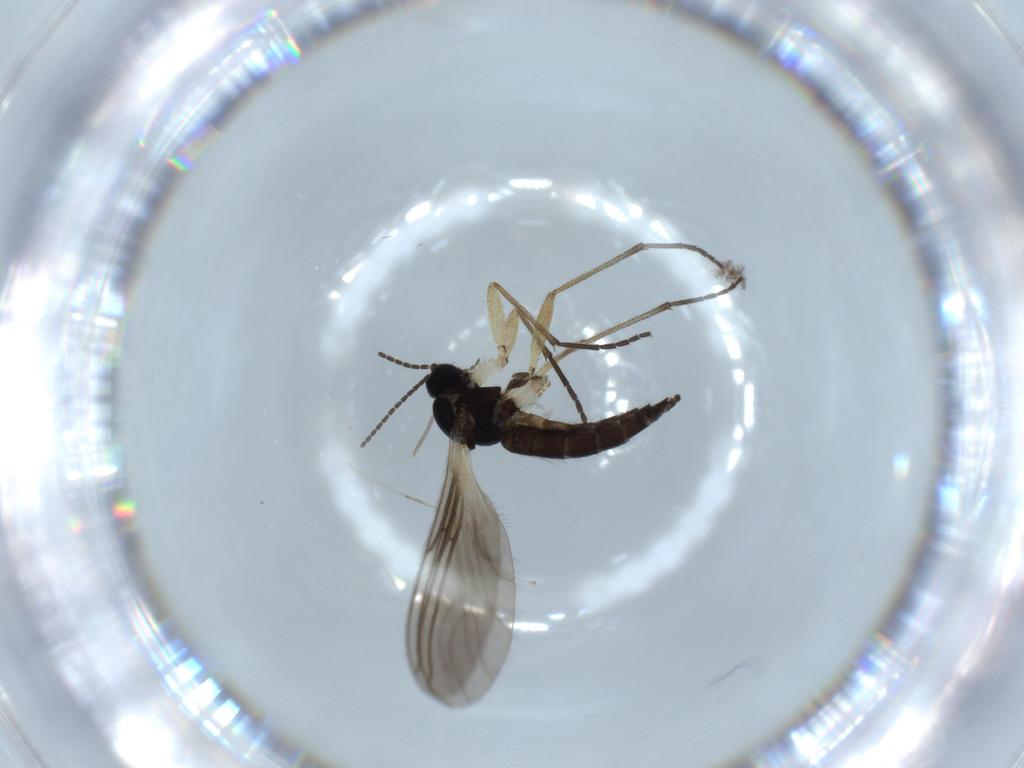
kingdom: Animalia
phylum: Arthropoda
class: Insecta
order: Diptera
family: Sciaridae
